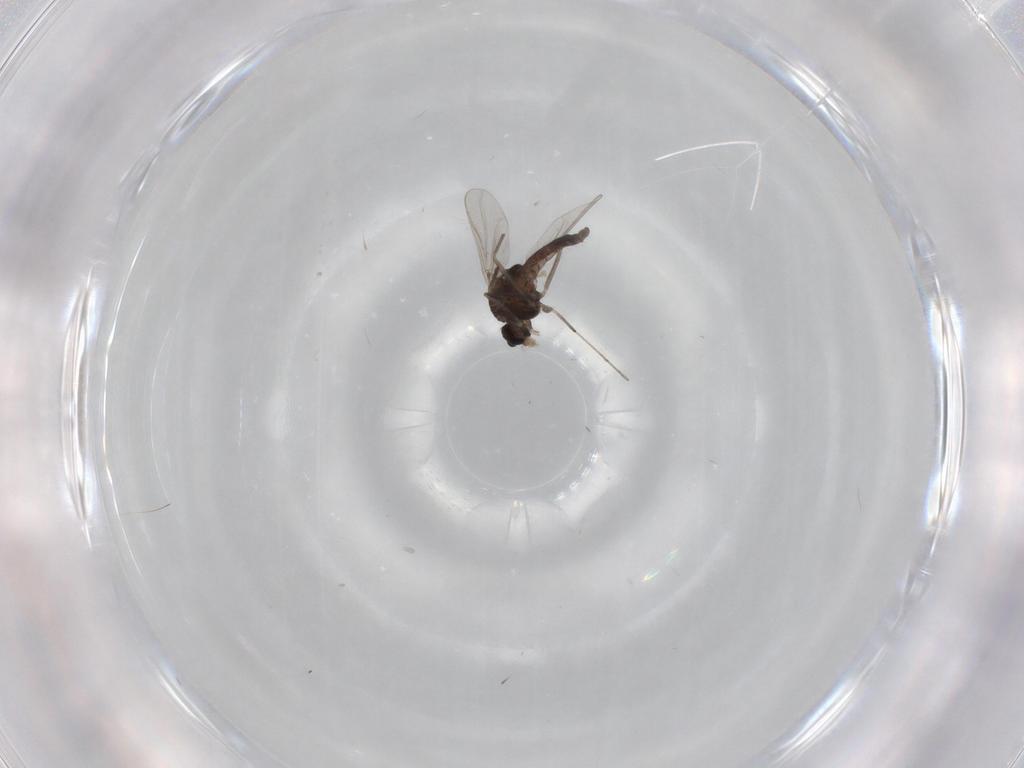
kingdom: Animalia
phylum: Arthropoda
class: Insecta
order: Diptera
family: Chironomidae
